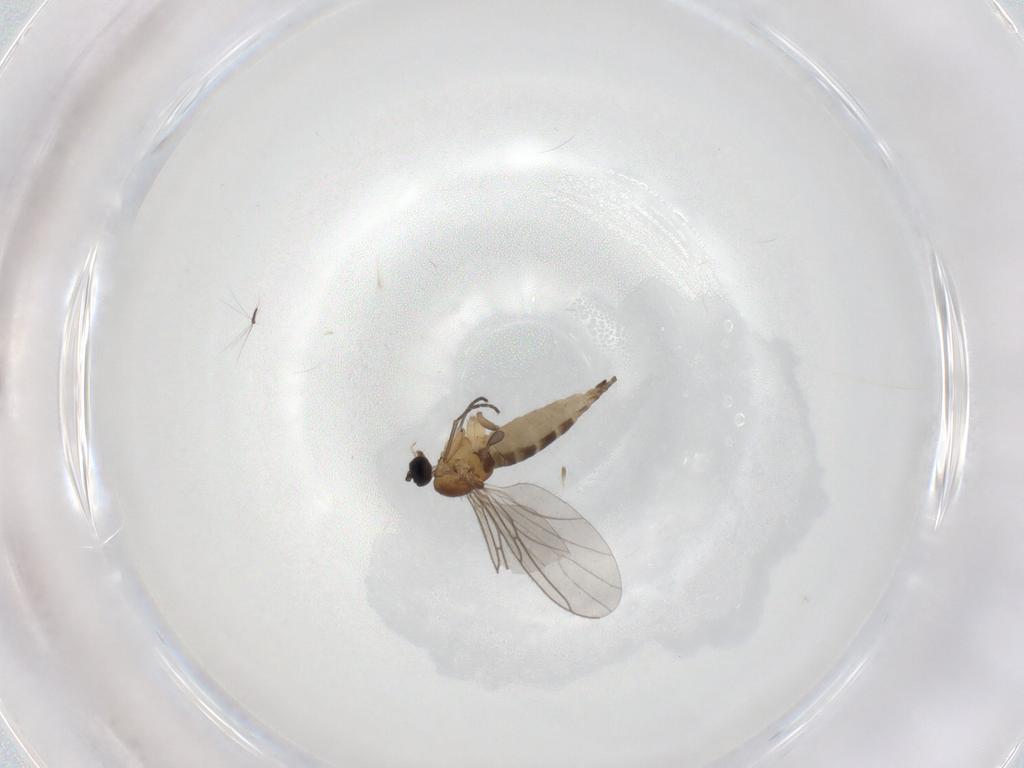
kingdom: Animalia
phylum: Arthropoda
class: Insecta
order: Diptera
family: Sciaridae
